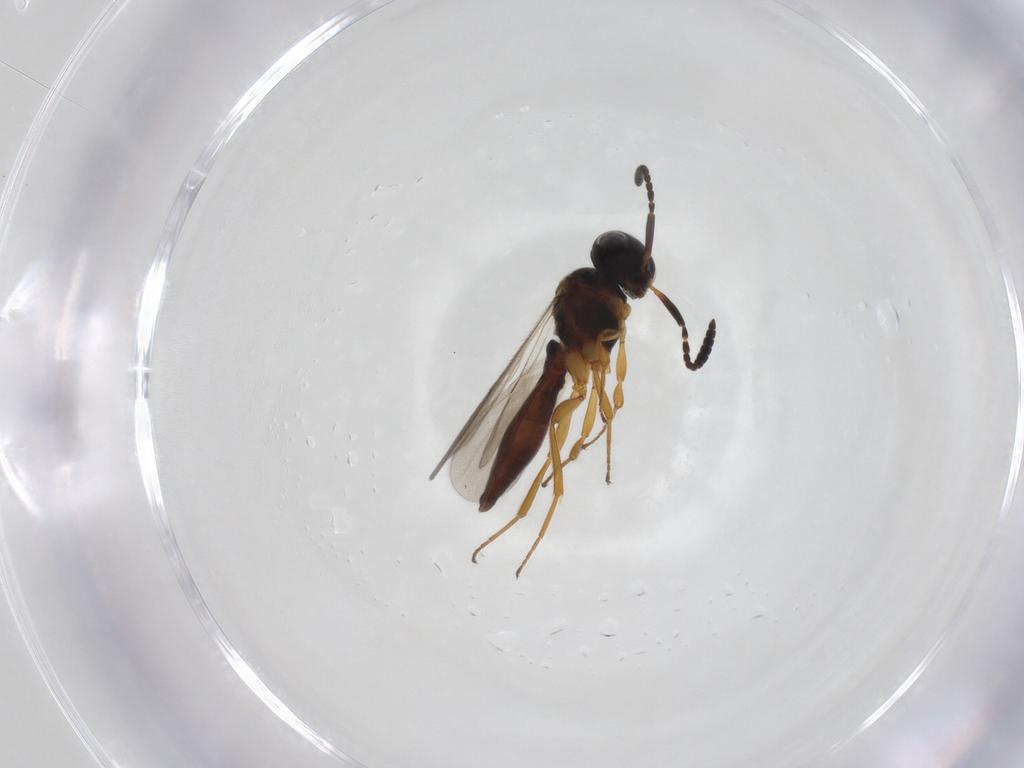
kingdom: Animalia
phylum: Arthropoda
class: Insecta
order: Hymenoptera
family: Scelionidae
